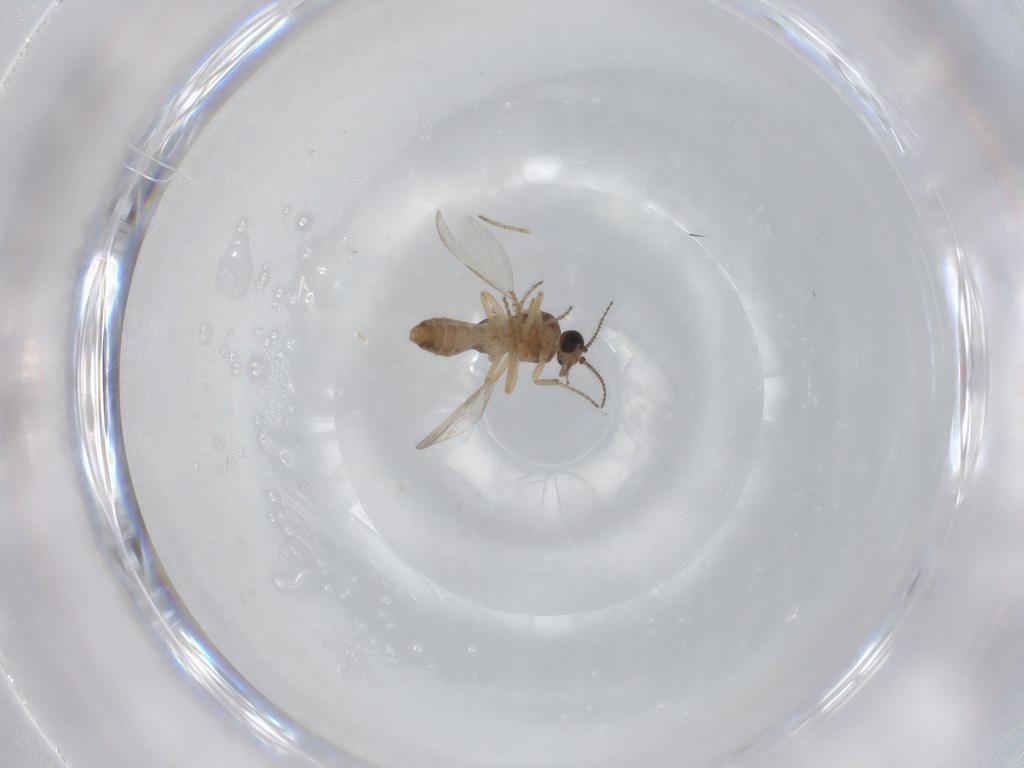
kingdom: Animalia
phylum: Arthropoda
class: Insecta
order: Diptera
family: Ceratopogonidae
